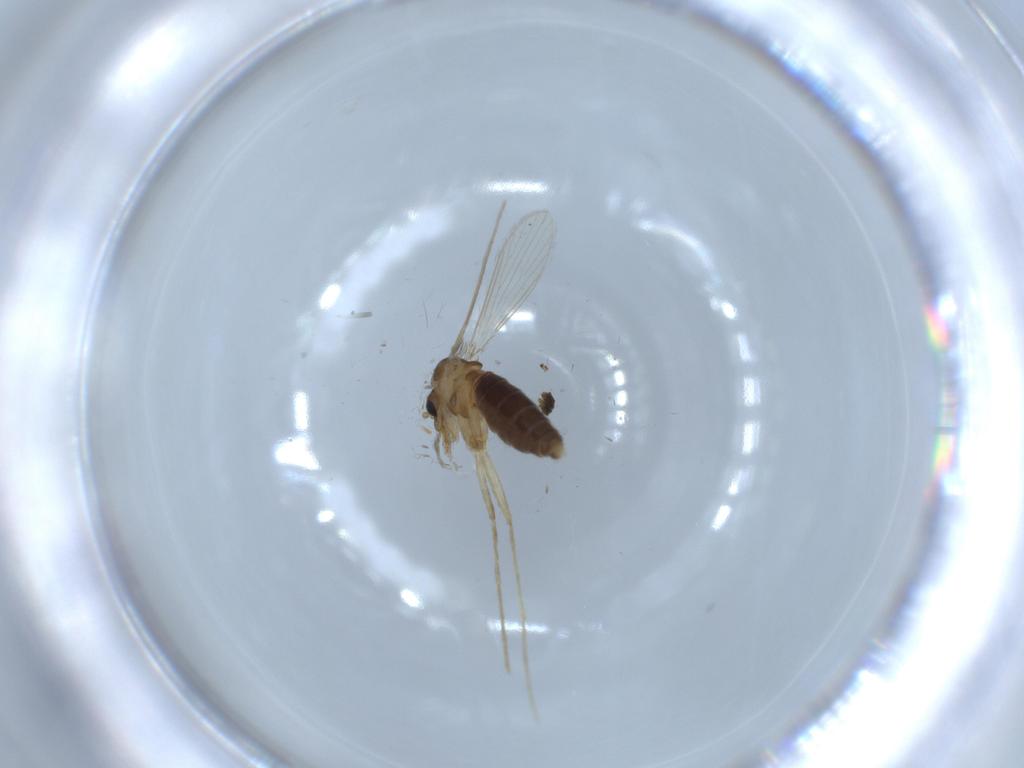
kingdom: Animalia
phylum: Arthropoda
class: Insecta
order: Diptera
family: Psychodidae
